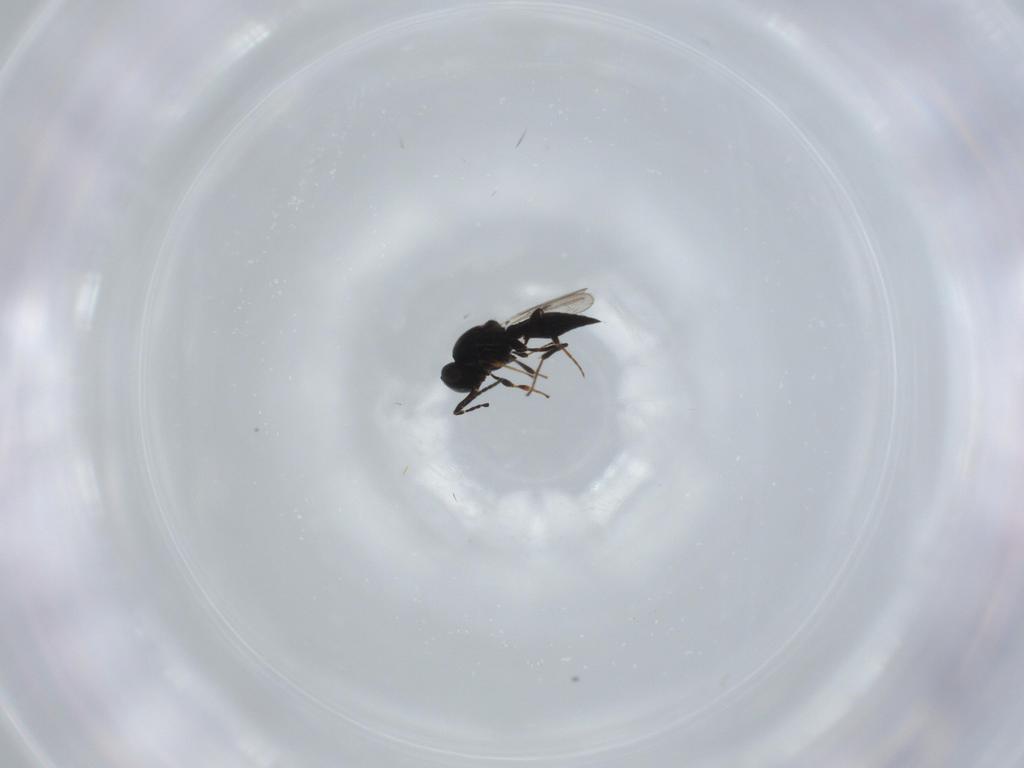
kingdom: Animalia
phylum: Arthropoda
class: Insecta
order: Diptera
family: Mythicomyiidae
